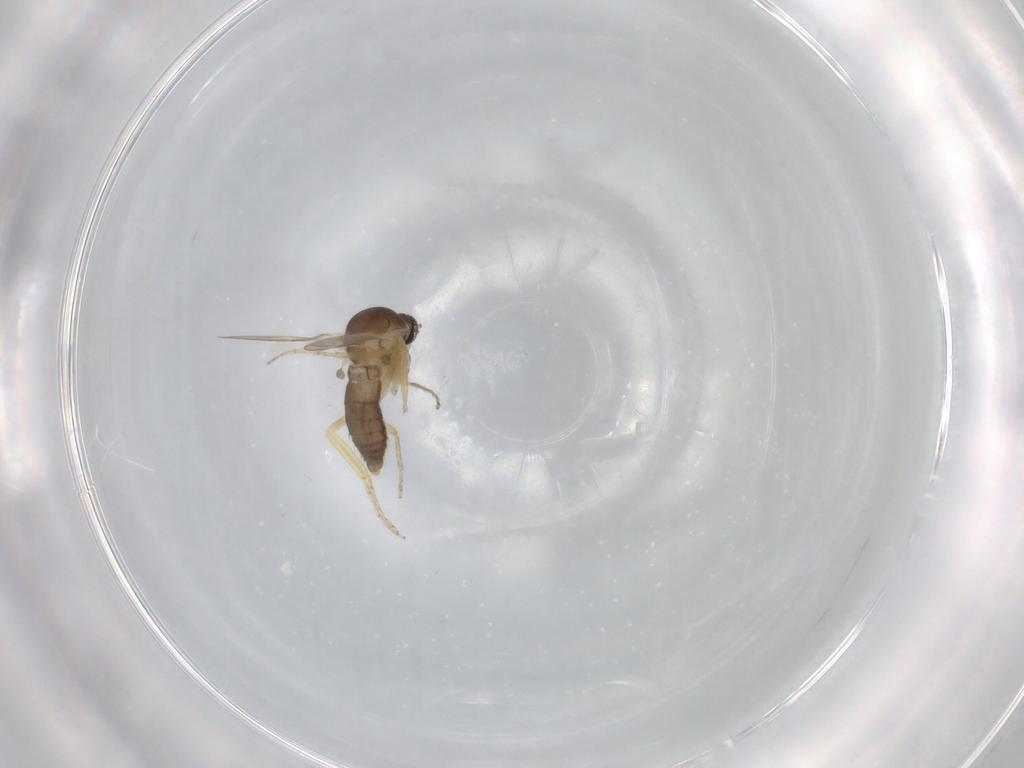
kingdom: Animalia
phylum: Arthropoda
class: Insecta
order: Diptera
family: Ceratopogonidae
